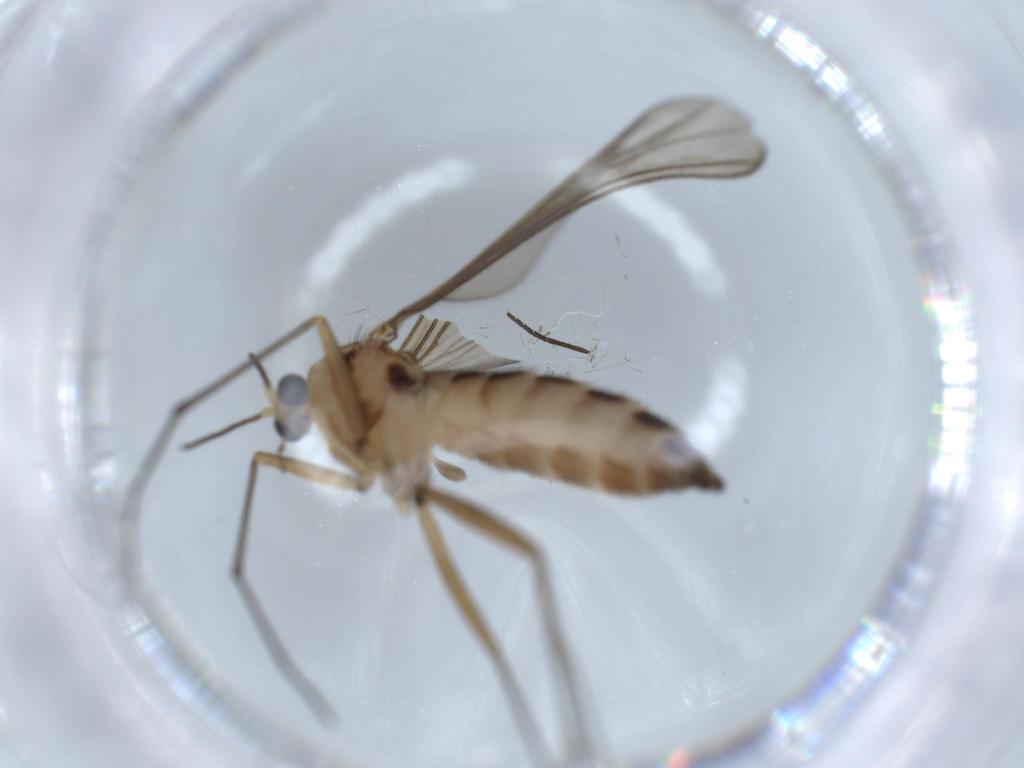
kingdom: Animalia
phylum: Arthropoda
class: Insecta
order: Diptera
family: Sciaridae
